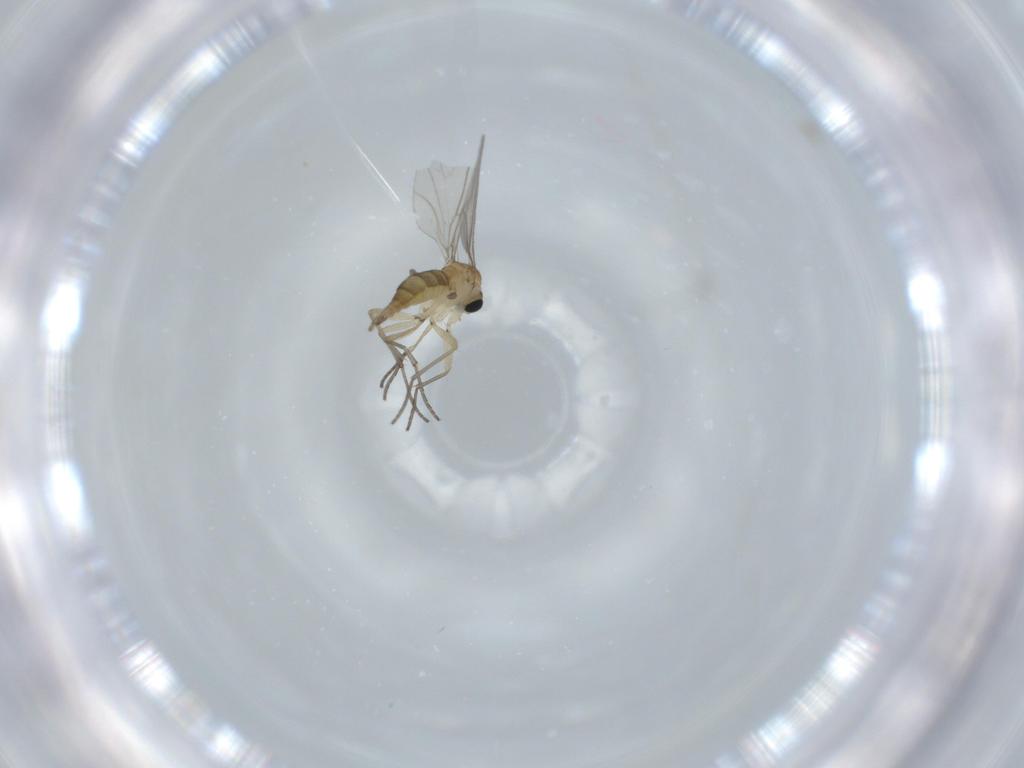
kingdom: Animalia
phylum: Arthropoda
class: Insecta
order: Diptera
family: Sciaridae
